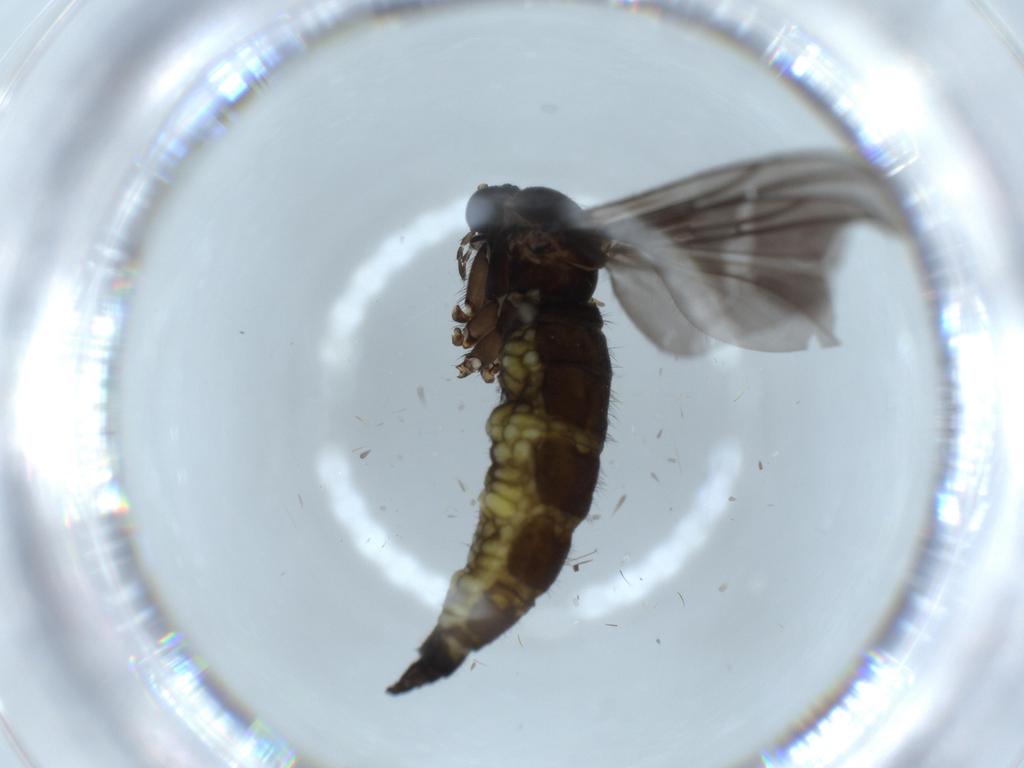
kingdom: Animalia
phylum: Arthropoda
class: Insecta
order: Diptera
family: Sciaridae
